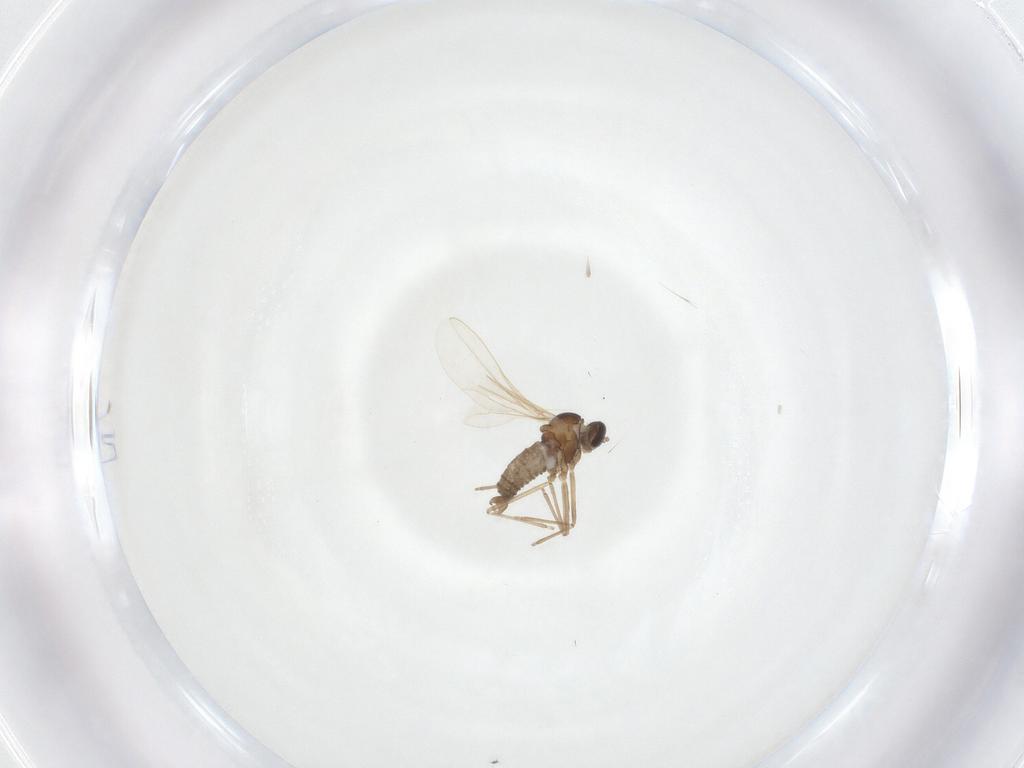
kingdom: Animalia
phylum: Arthropoda
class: Insecta
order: Diptera
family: Cecidomyiidae
